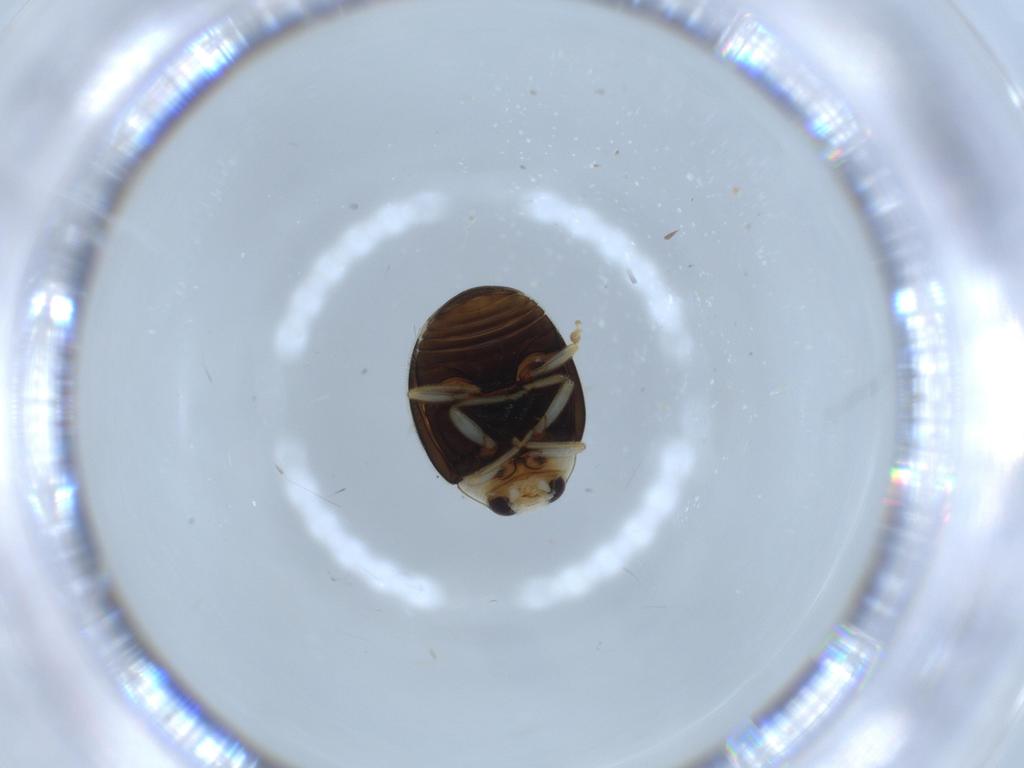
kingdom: Animalia
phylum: Arthropoda
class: Insecta
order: Coleoptera
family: Coccinellidae
